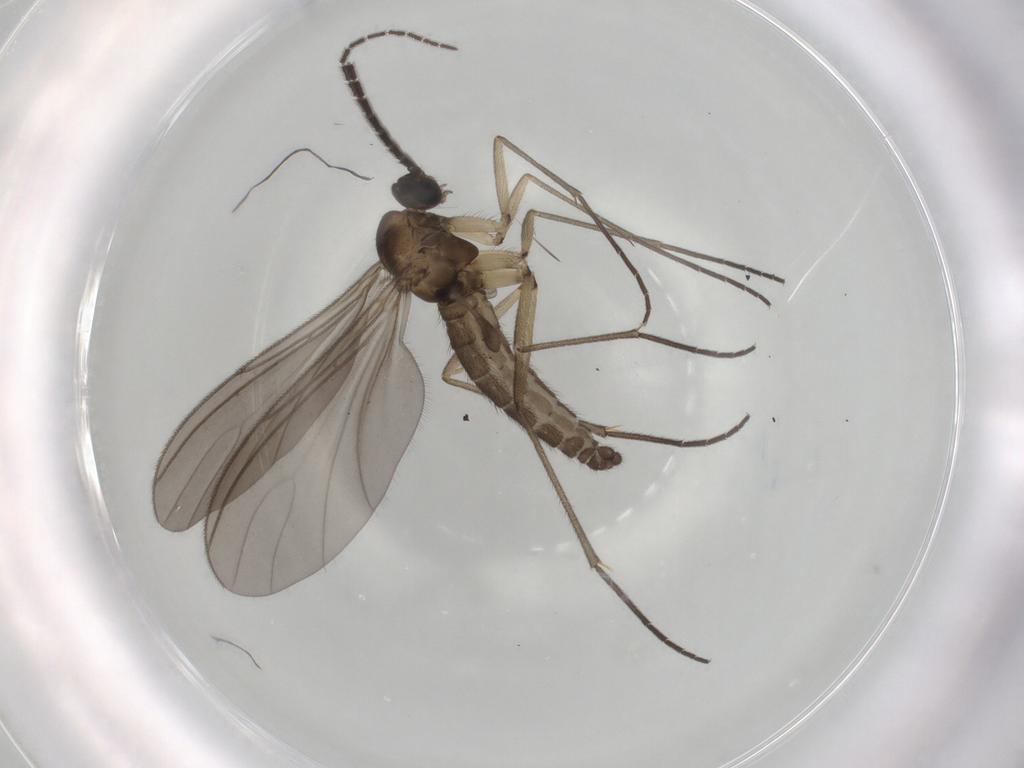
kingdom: Animalia
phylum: Arthropoda
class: Insecta
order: Diptera
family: Sciaridae
